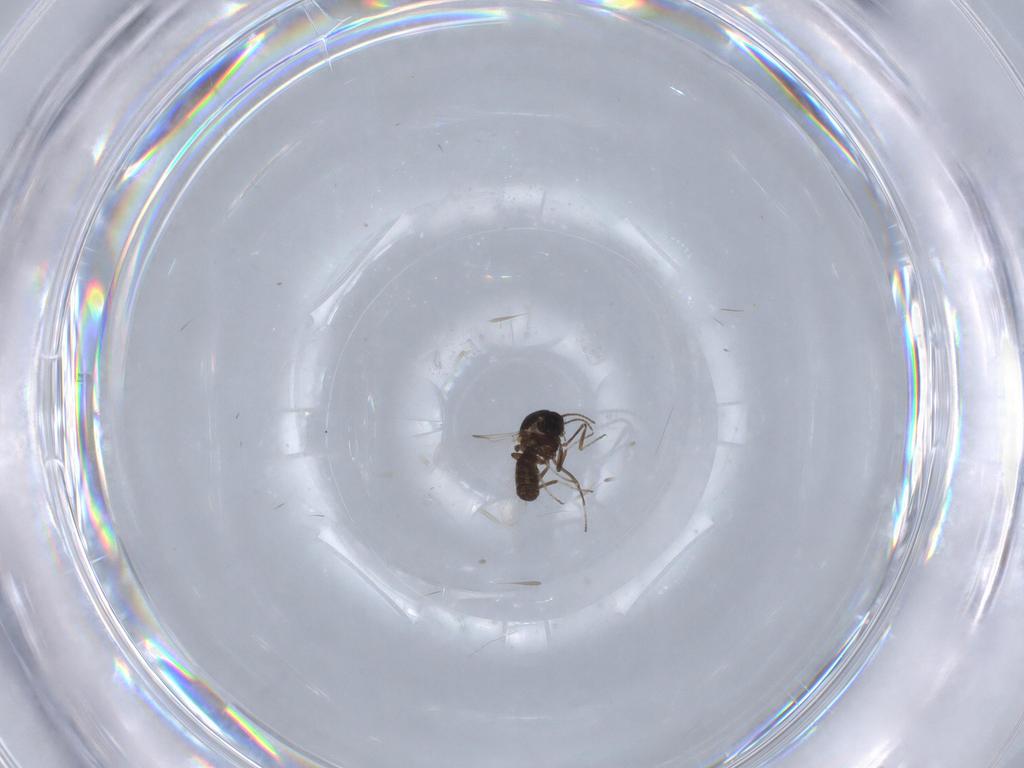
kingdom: Animalia
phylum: Arthropoda
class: Insecta
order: Diptera
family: Ceratopogonidae
